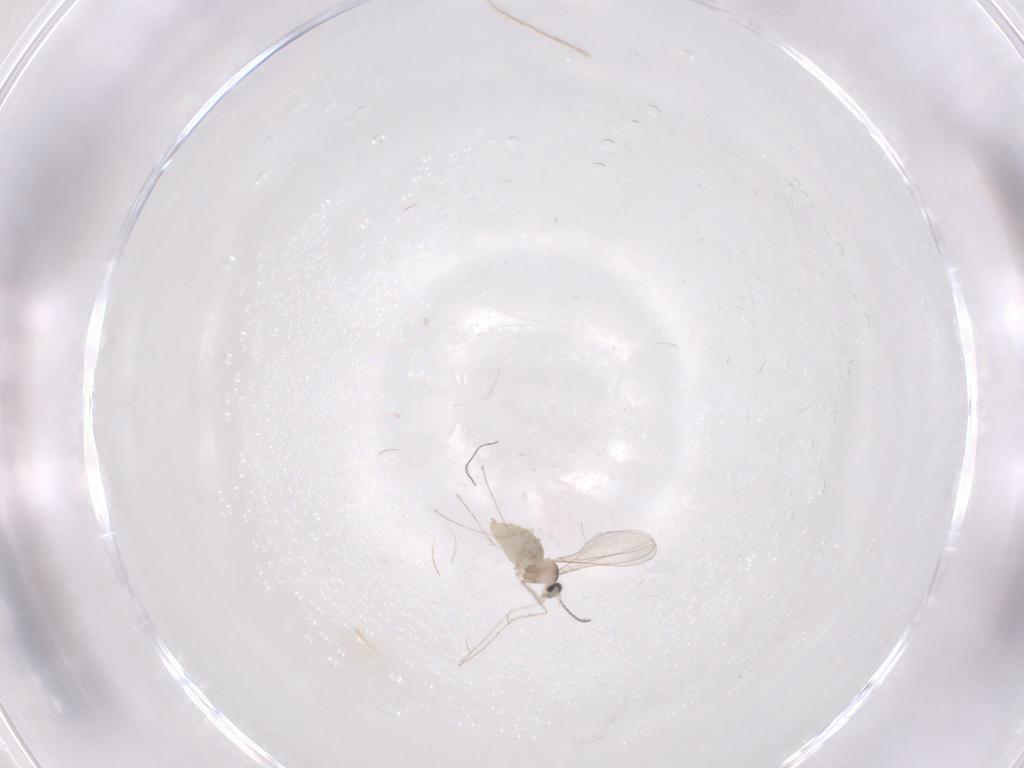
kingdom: Animalia
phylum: Arthropoda
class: Insecta
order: Diptera
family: Cecidomyiidae
